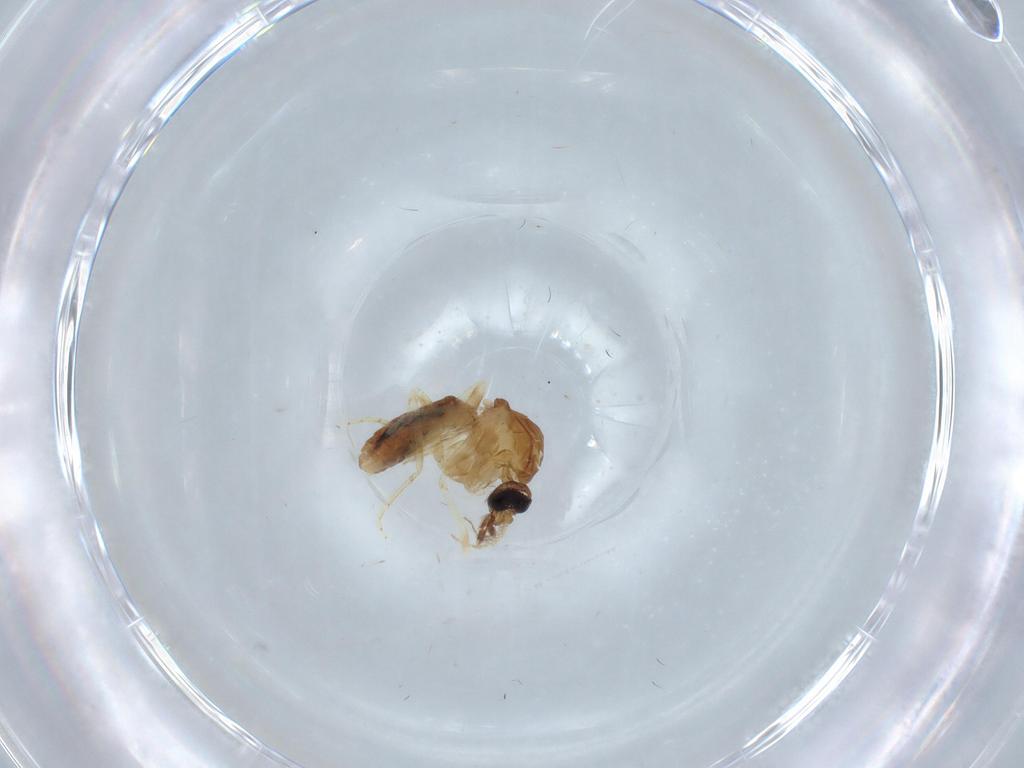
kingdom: Animalia
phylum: Arthropoda
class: Insecta
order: Diptera
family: Ceratopogonidae
